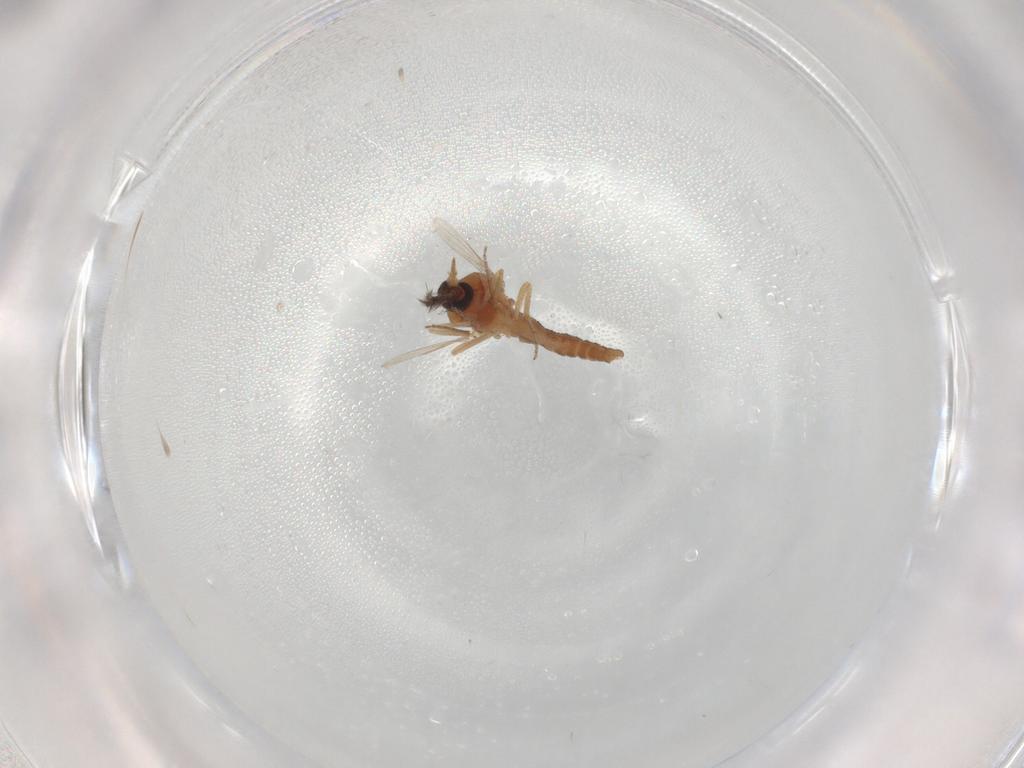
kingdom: Animalia
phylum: Arthropoda
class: Insecta
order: Diptera
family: Ceratopogonidae
